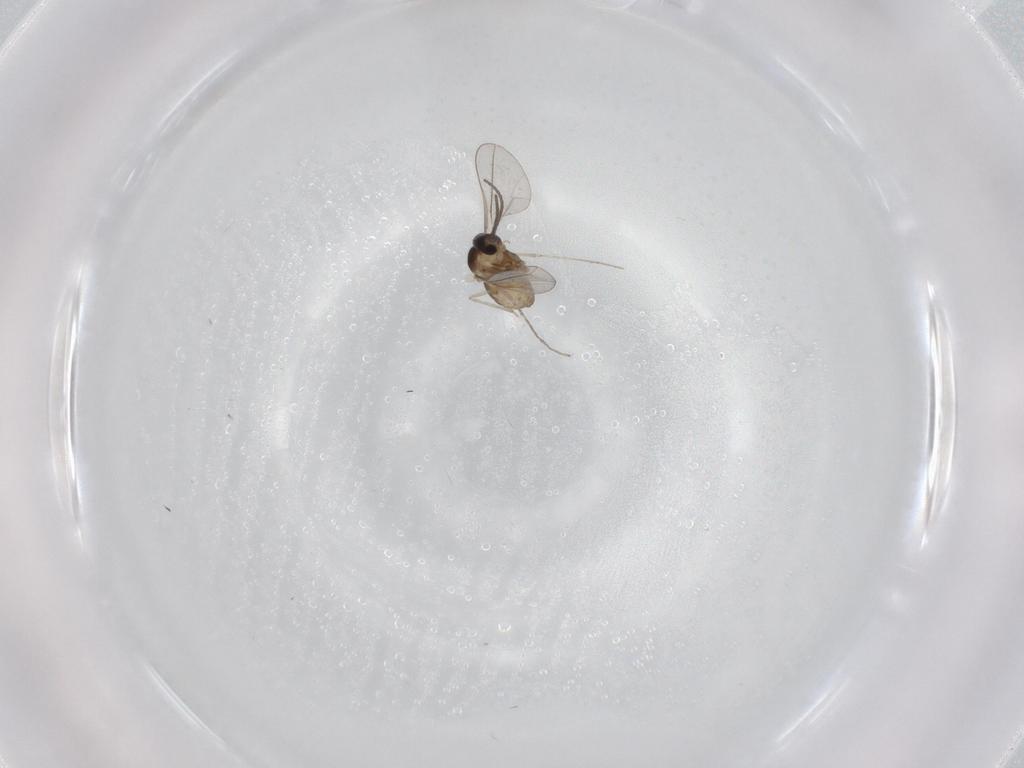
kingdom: Animalia
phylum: Arthropoda
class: Insecta
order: Diptera
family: Cecidomyiidae
